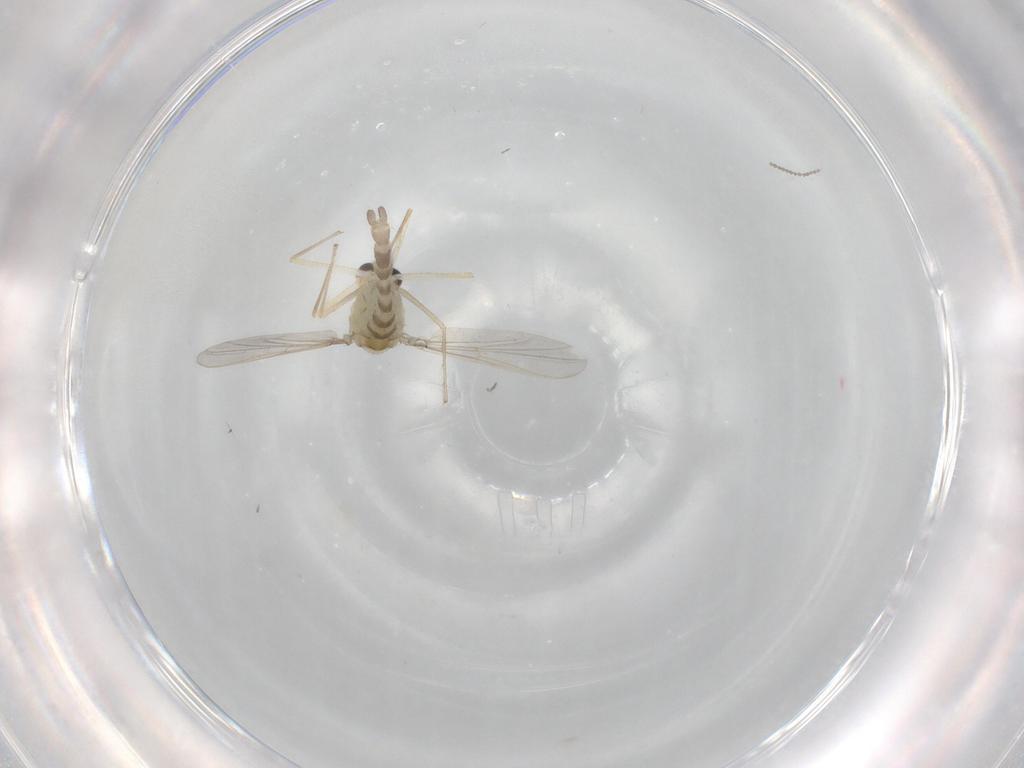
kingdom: Animalia
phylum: Arthropoda
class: Insecta
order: Diptera
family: Chironomidae
